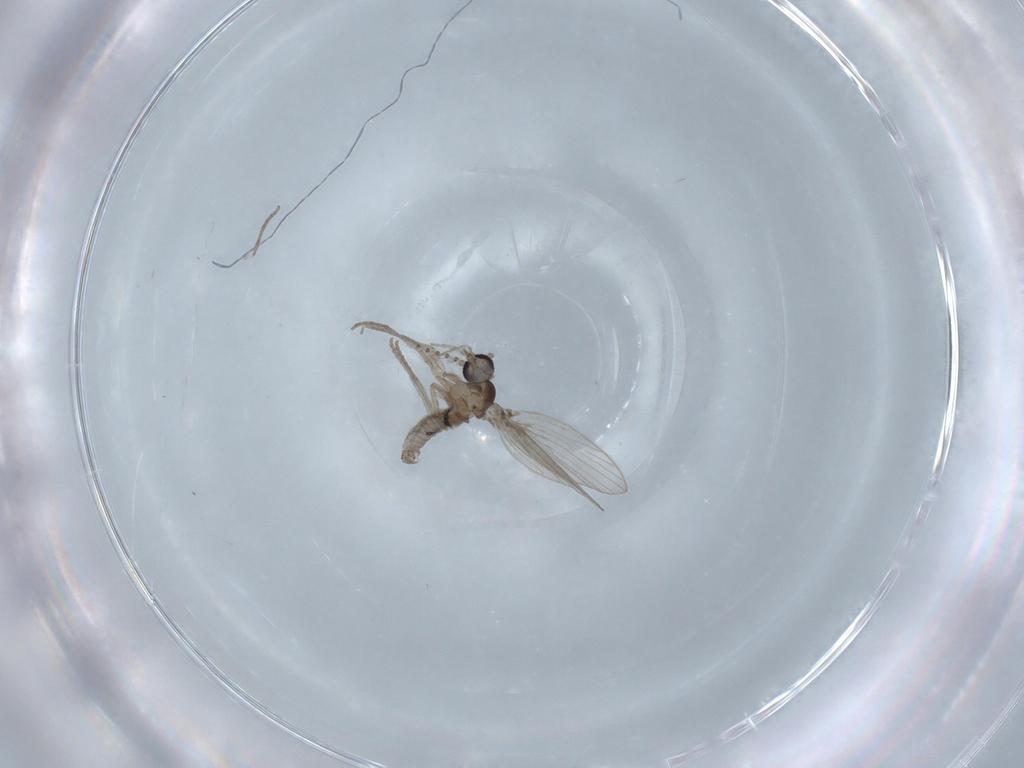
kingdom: Animalia
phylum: Arthropoda
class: Insecta
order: Diptera
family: Psychodidae
